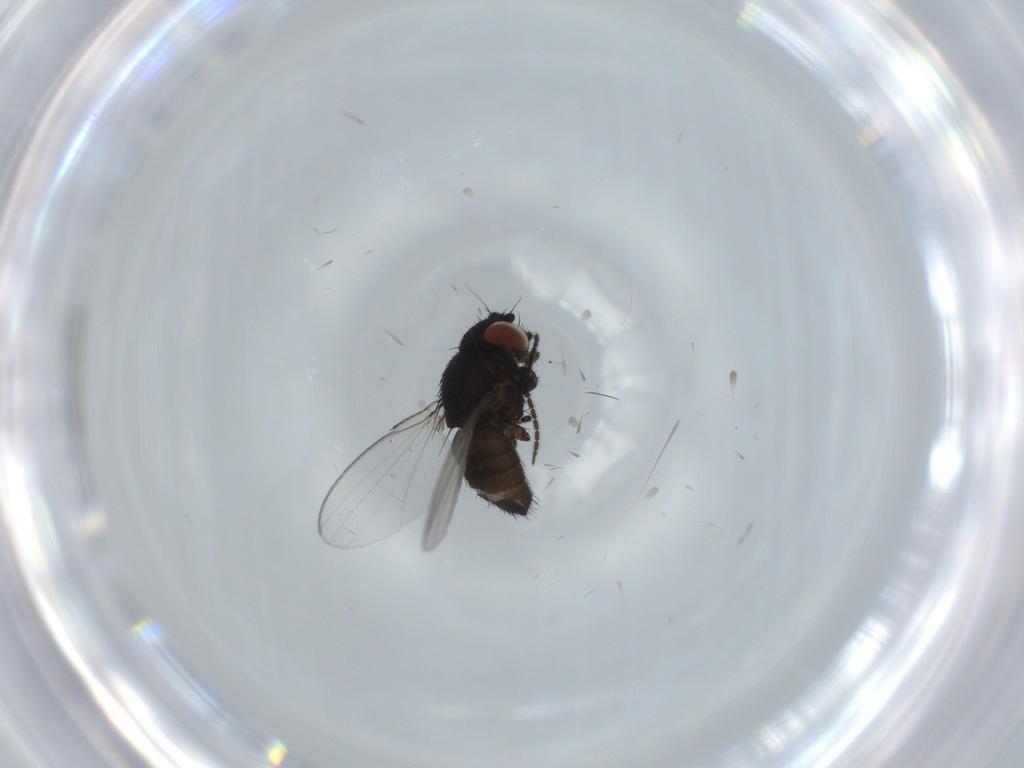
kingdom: Animalia
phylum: Arthropoda
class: Insecta
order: Diptera
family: Milichiidae
